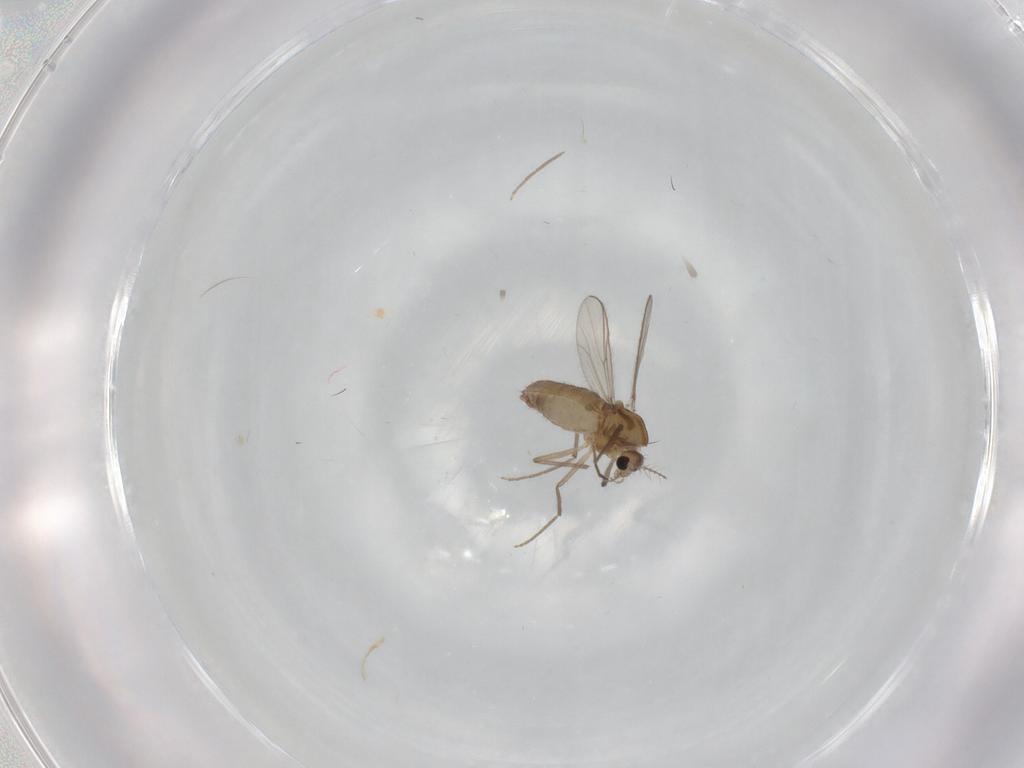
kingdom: Animalia
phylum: Arthropoda
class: Insecta
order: Diptera
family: Chironomidae
